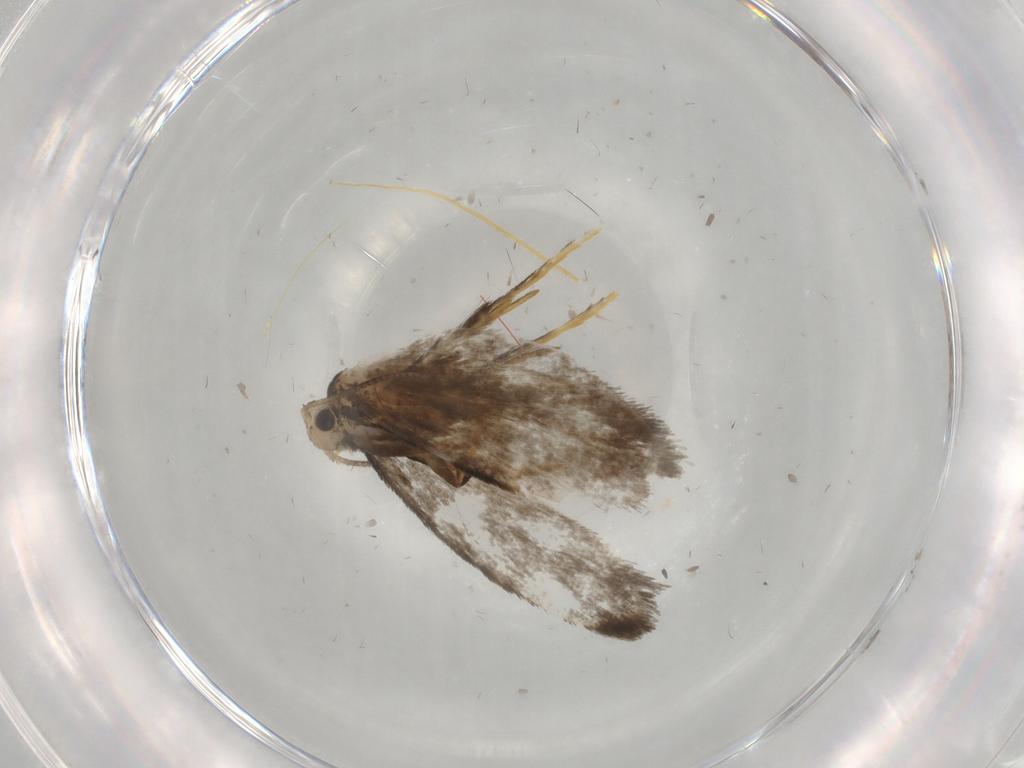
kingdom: Animalia
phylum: Arthropoda
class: Insecta
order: Lepidoptera
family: Psychidae
